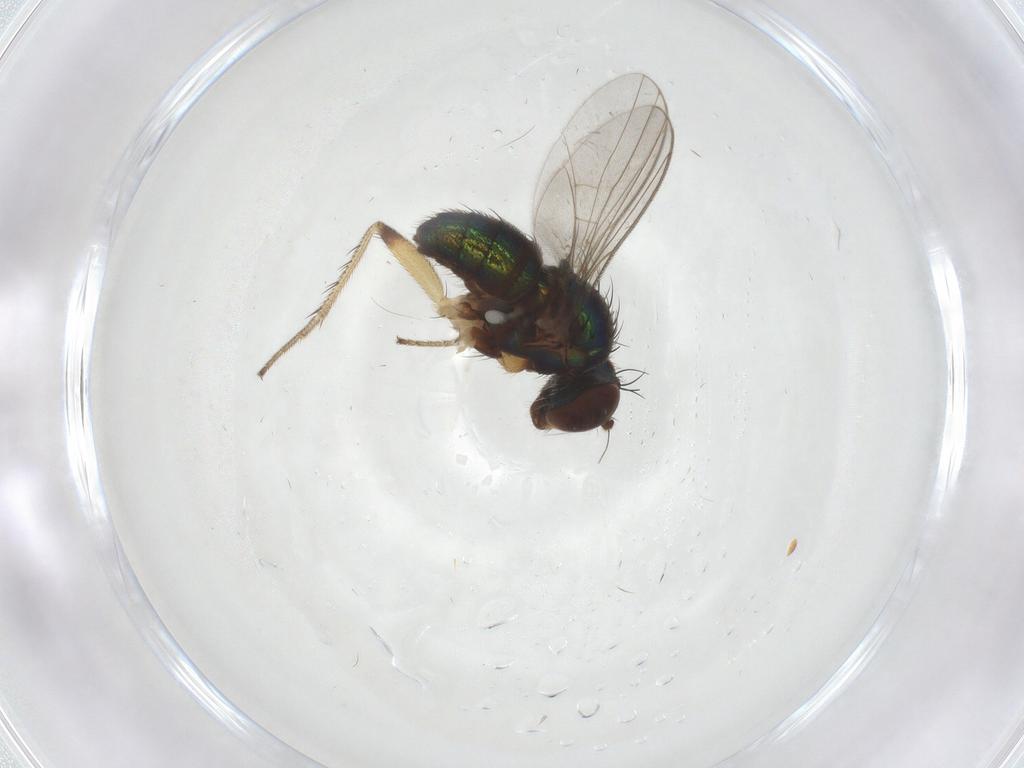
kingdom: Animalia
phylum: Arthropoda
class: Insecta
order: Diptera
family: Dolichopodidae
